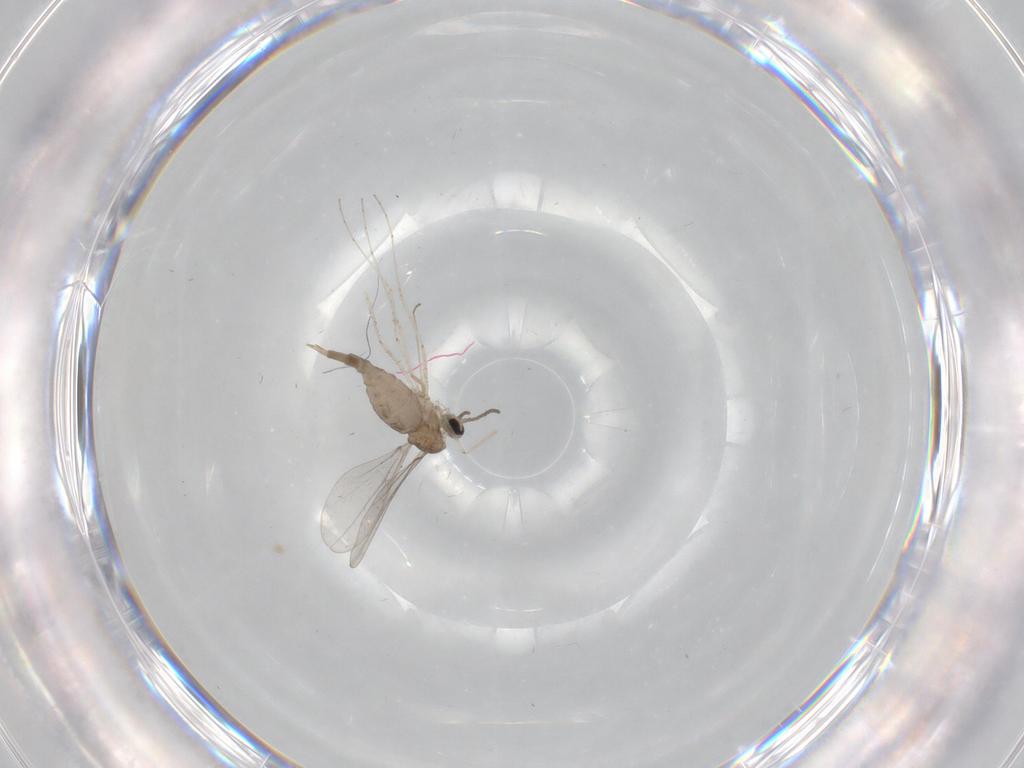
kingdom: Animalia
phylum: Arthropoda
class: Insecta
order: Diptera
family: Cecidomyiidae
